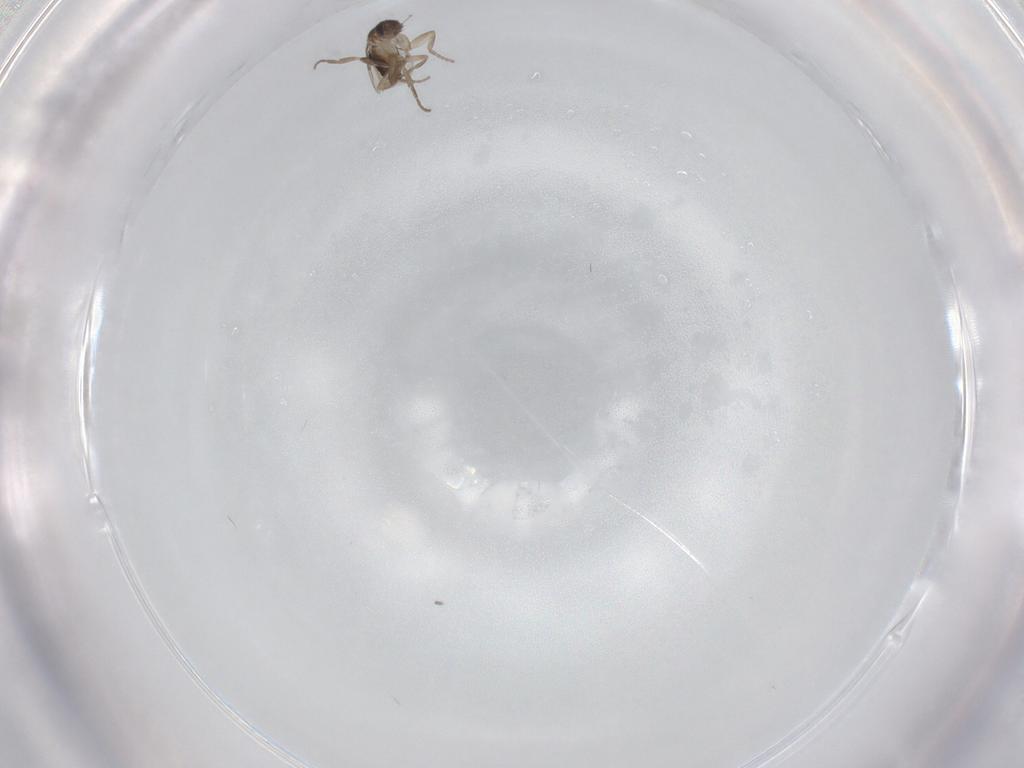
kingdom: Animalia
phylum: Arthropoda
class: Insecta
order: Diptera
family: Phoridae
